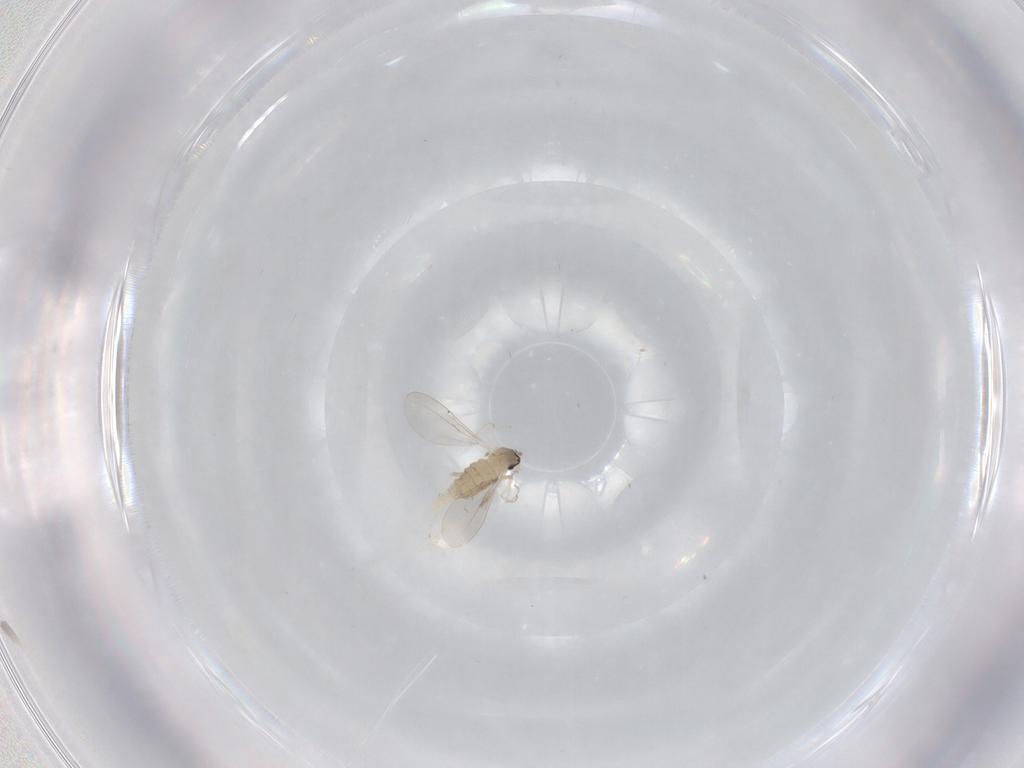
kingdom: Animalia
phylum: Arthropoda
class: Insecta
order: Diptera
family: Cecidomyiidae
